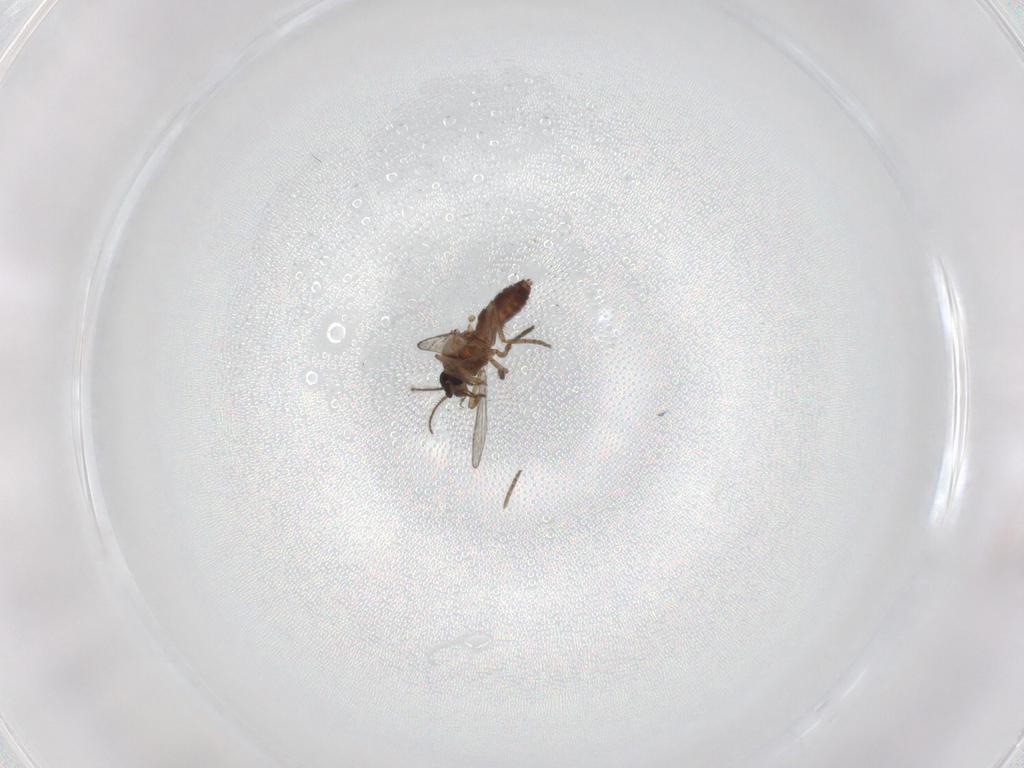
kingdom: Animalia
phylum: Arthropoda
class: Insecta
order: Diptera
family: Ceratopogonidae
